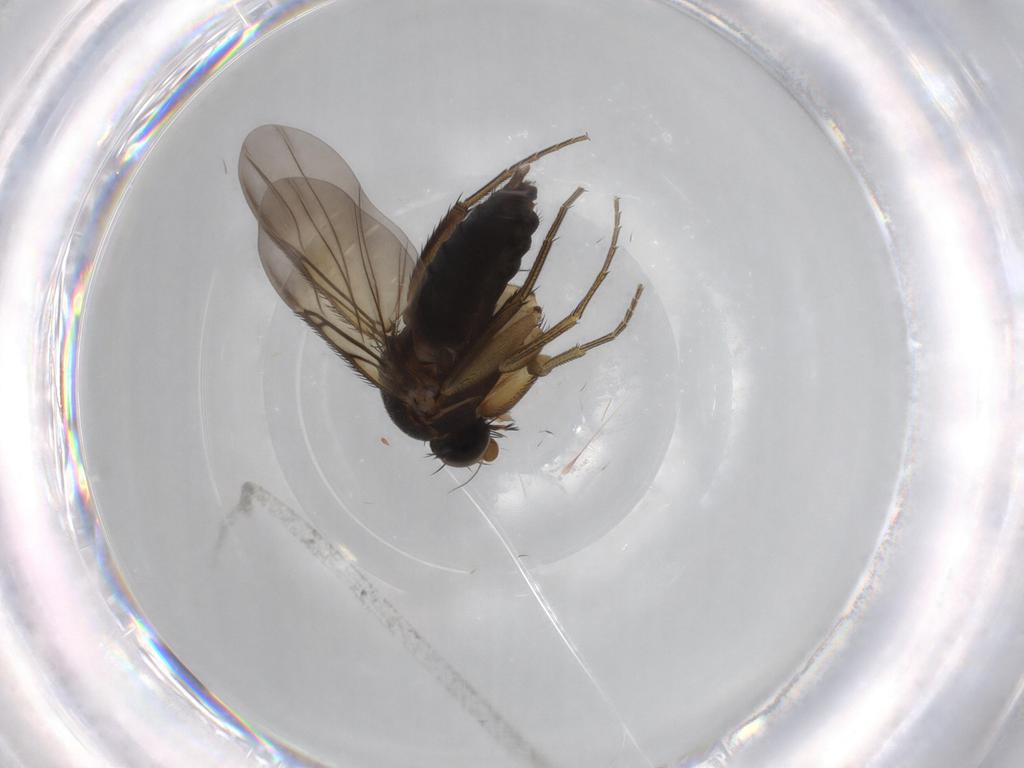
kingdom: Animalia
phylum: Arthropoda
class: Insecta
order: Diptera
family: Phoridae
